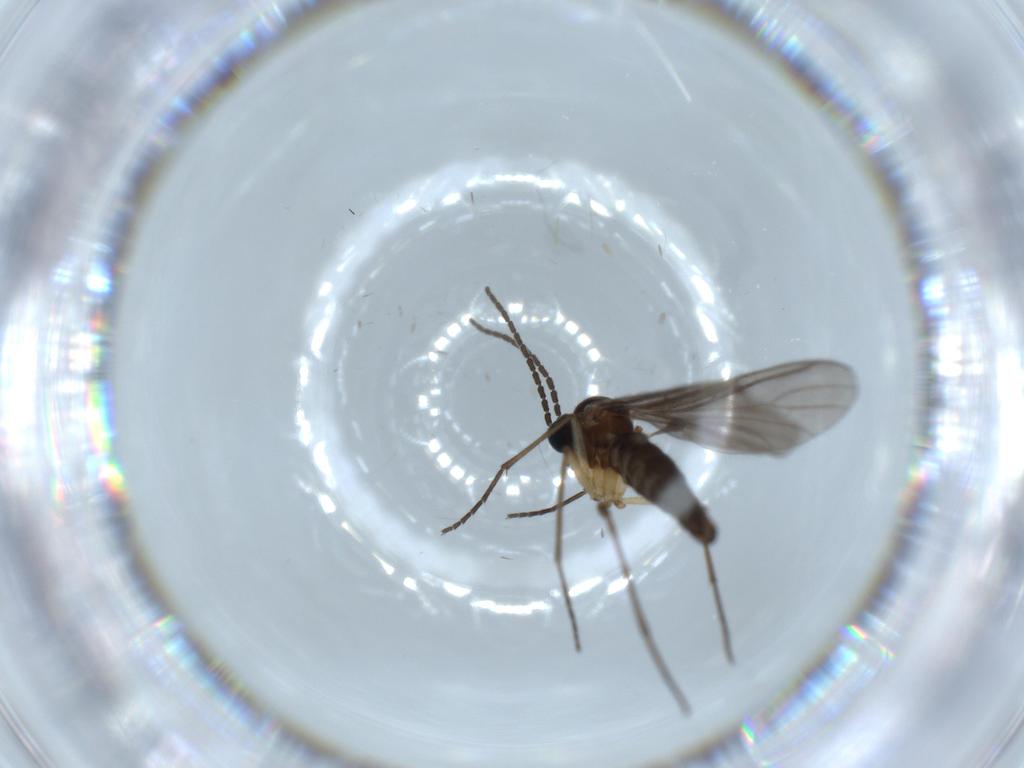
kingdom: Animalia
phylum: Arthropoda
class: Insecta
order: Diptera
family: Sciaridae
